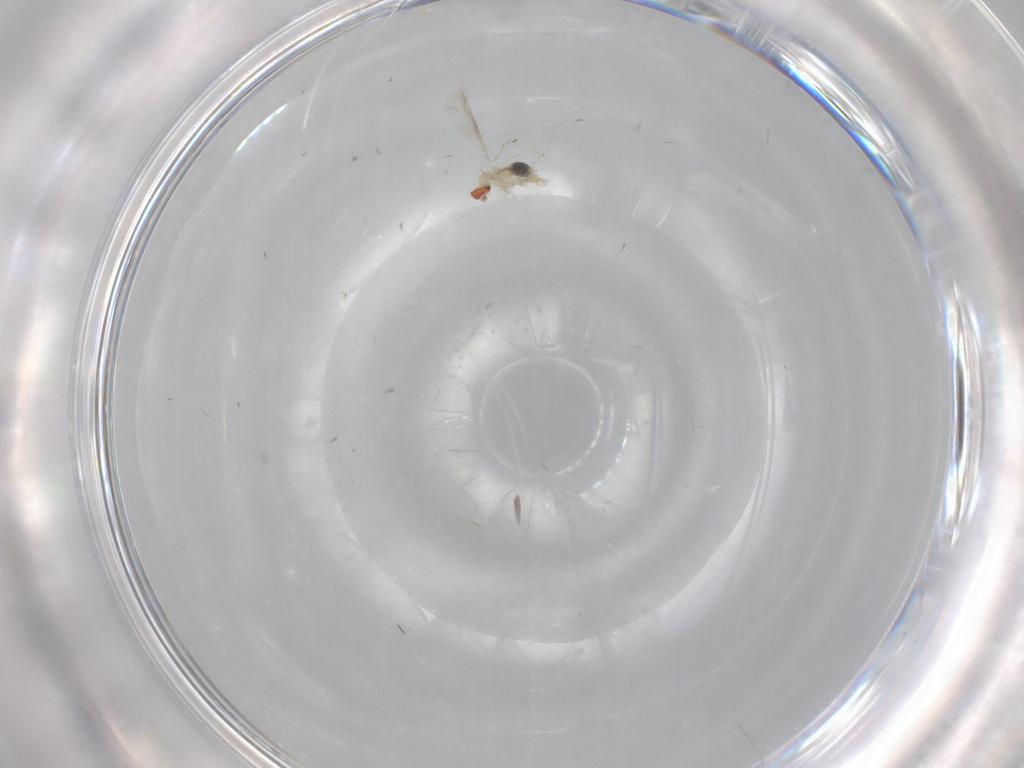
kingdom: Animalia
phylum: Arthropoda
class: Insecta
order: Diptera
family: Cecidomyiidae
